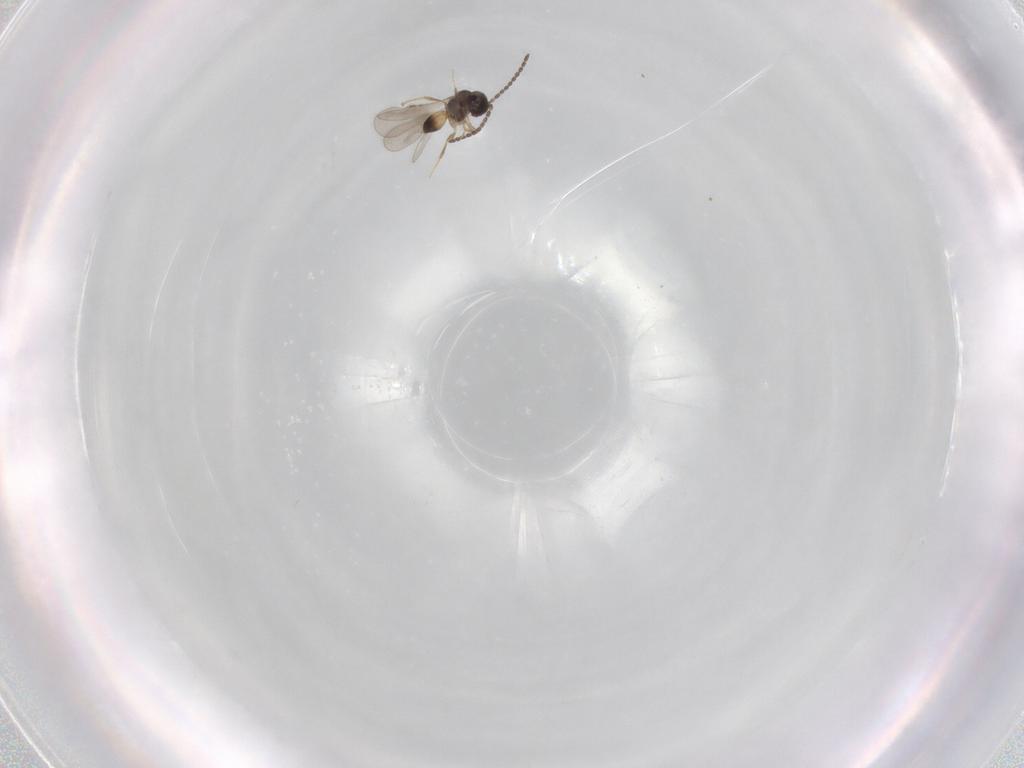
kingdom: Animalia
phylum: Arthropoda
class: Insecta
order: Hymenoptera
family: Ceraphronidae
